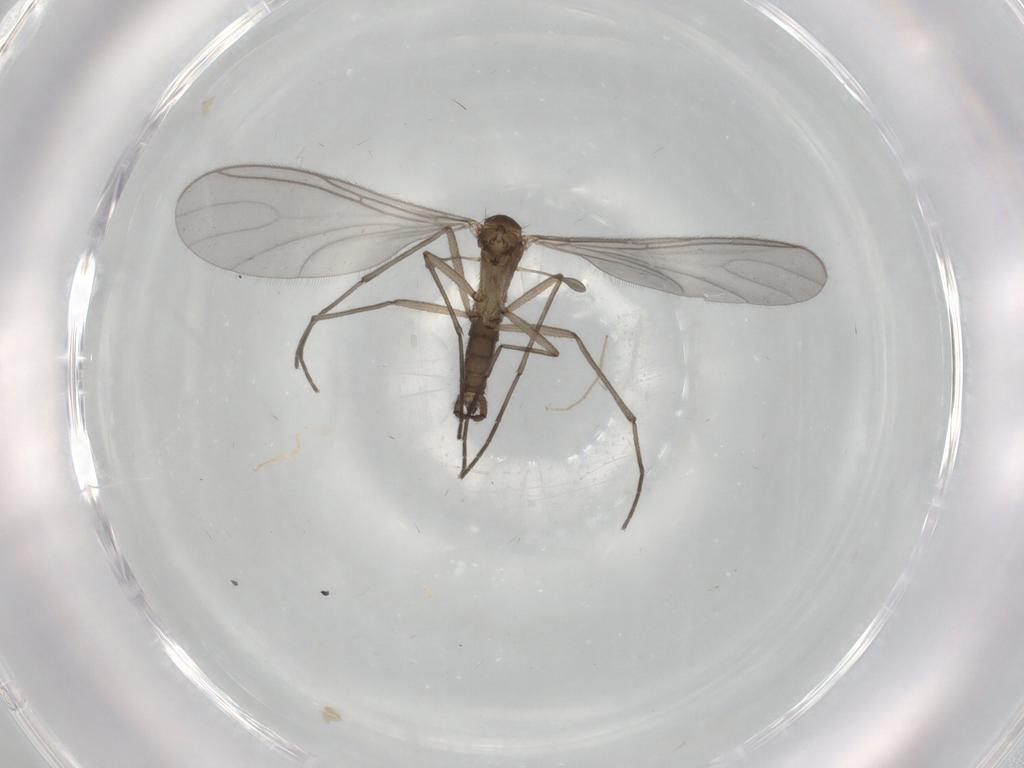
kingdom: Animalia
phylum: Arthropoda
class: Insecta
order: Diptera
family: Sciaridae
